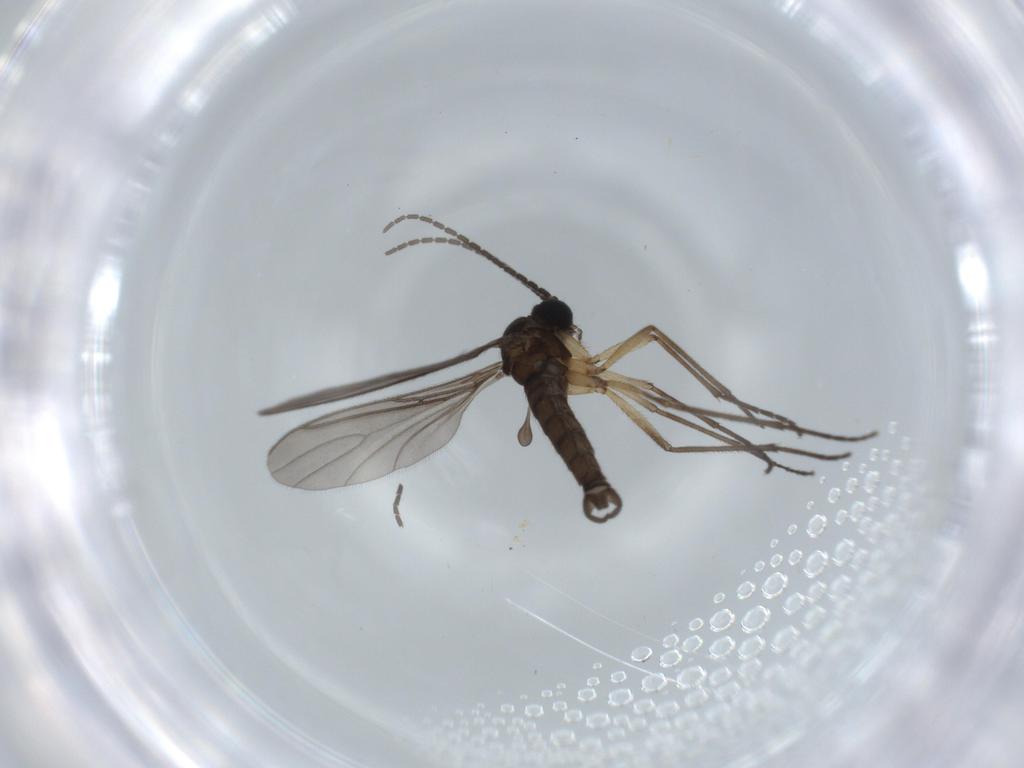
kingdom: Animalia
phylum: Arthropoda
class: Insecta
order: Diptera
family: Sciaridae
